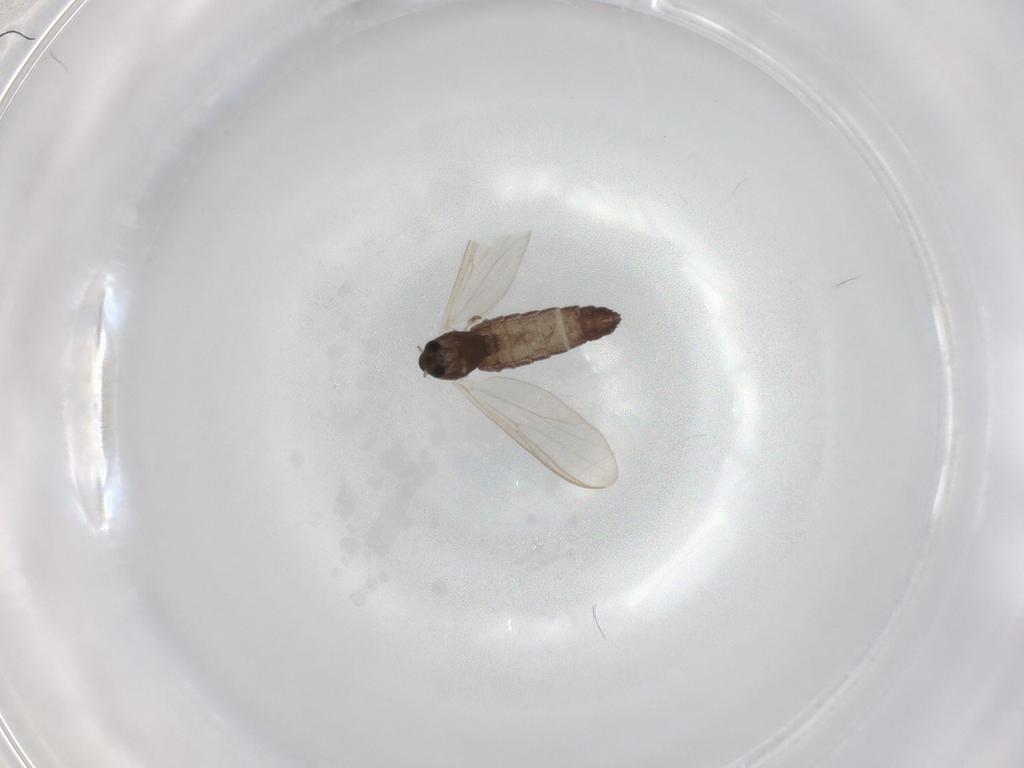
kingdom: Animalia
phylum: Arthropoda
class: Insecta
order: Diptera
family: Chironomidae
